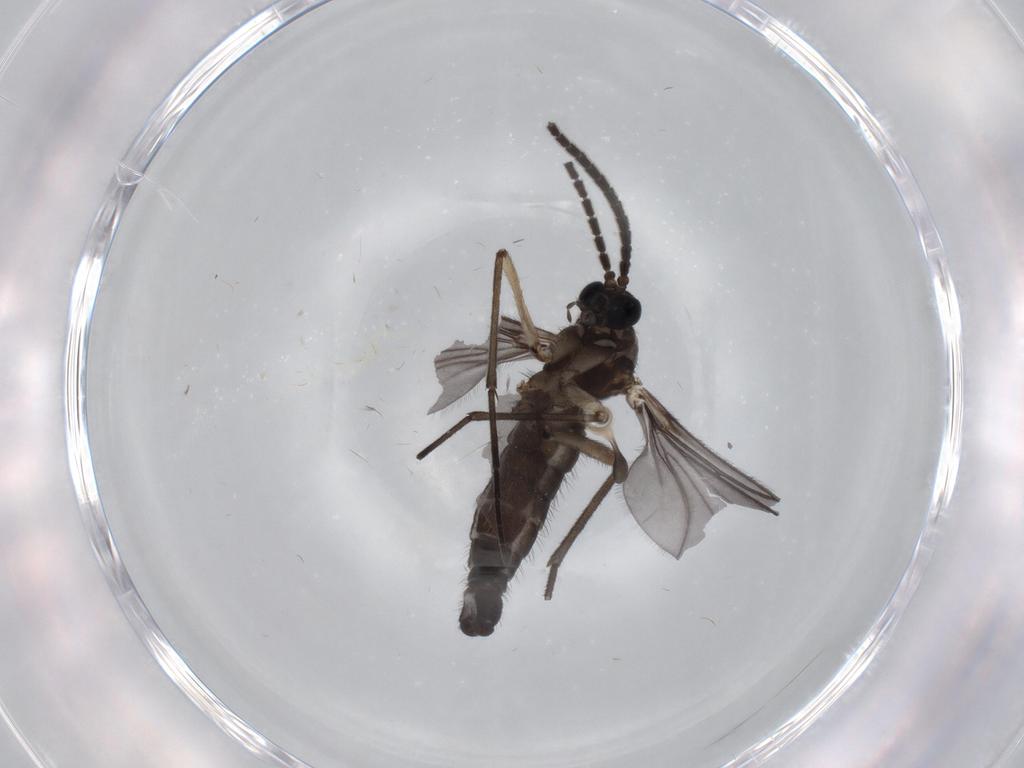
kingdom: Animalia
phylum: Arthropoda
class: Insecta
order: Diptera
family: Sciaridae
